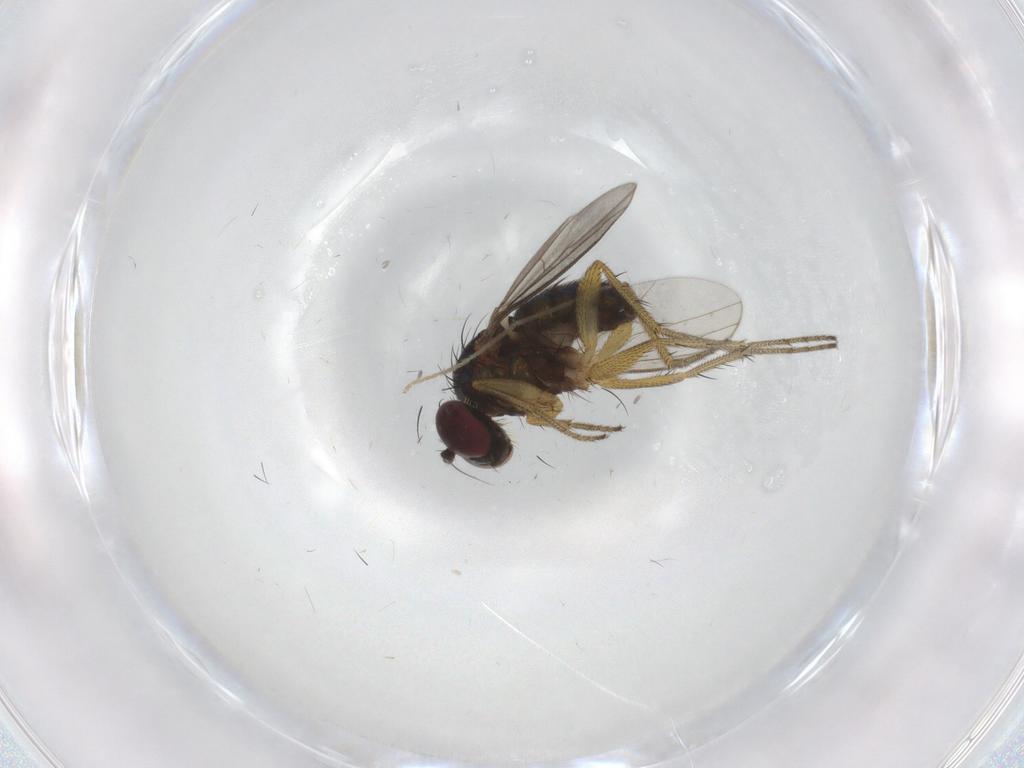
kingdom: Animalia
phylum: Arthropoda
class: Insecta
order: Diptera
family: Chironomidae
